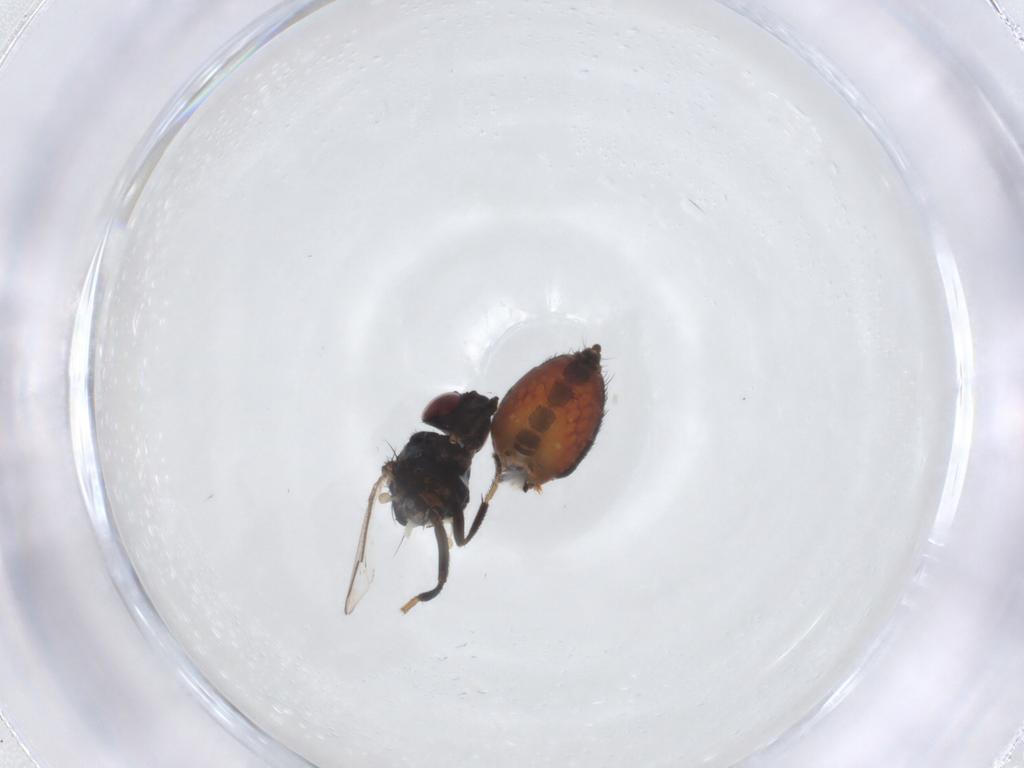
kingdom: Animalia
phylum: Arthropoda
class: Insecta
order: Diptera
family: Milichiidae
